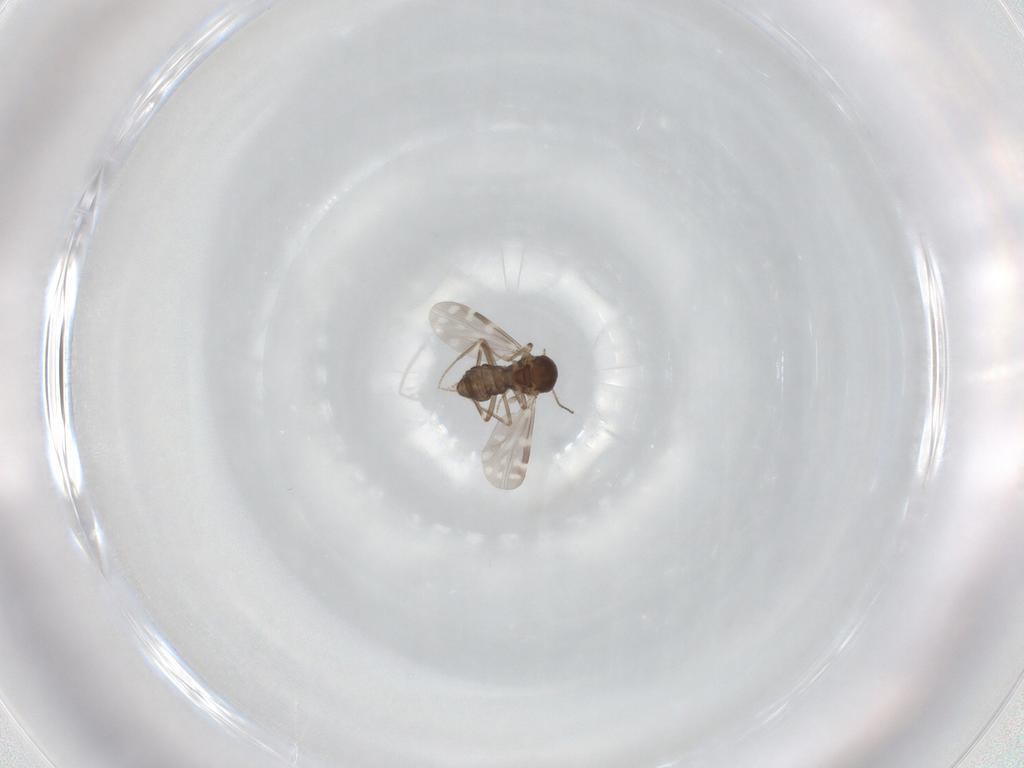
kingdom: Animalia
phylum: Arthropoda
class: Insecta
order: Diptera
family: Ceratopogonidae
